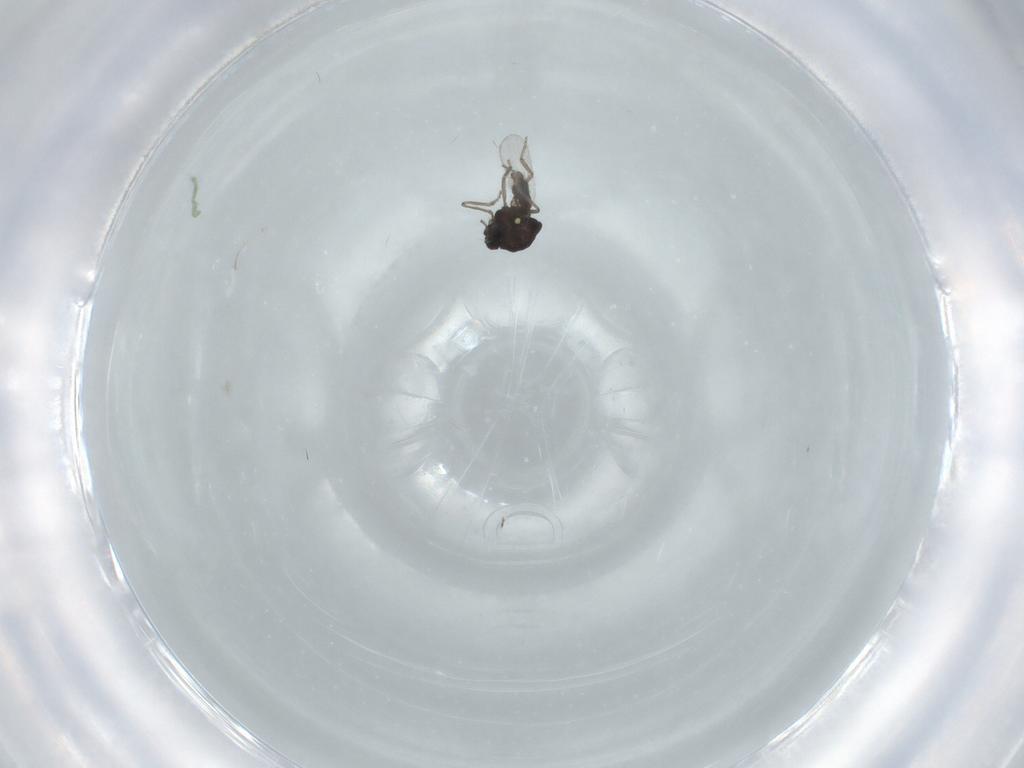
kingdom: Animalia
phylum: Arthropoda
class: Insecta
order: Diptera
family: Ceratopogonidae
